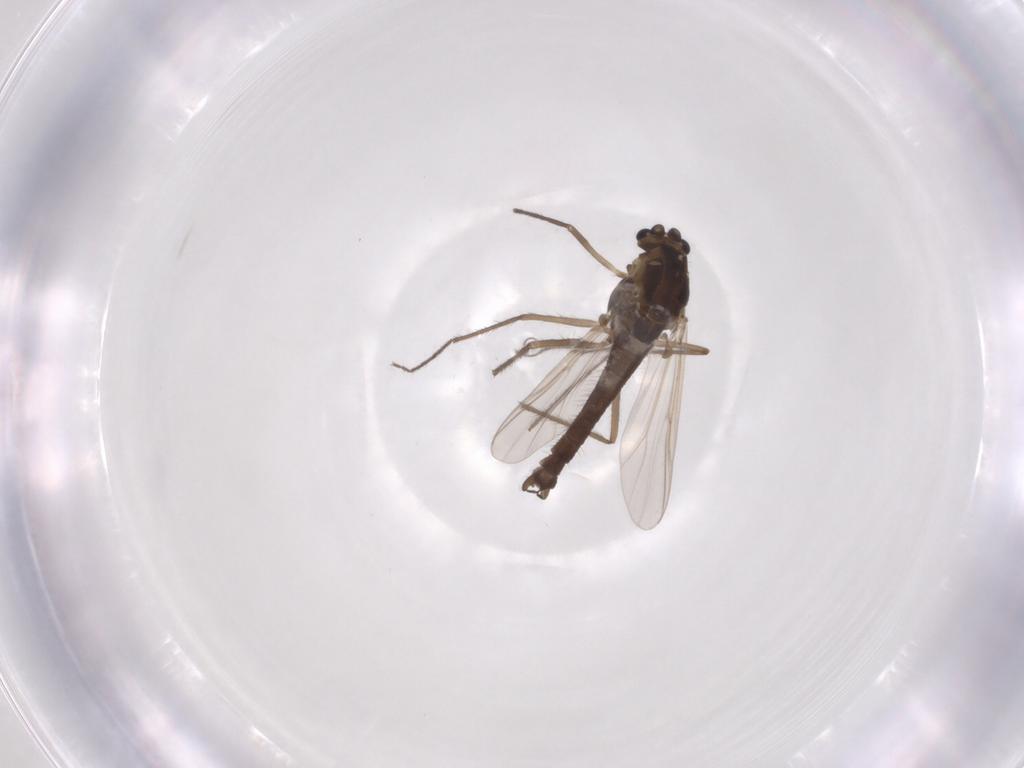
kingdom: Animalia
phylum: Arthropoda
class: Insecta
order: Diptera
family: Chironomidae
